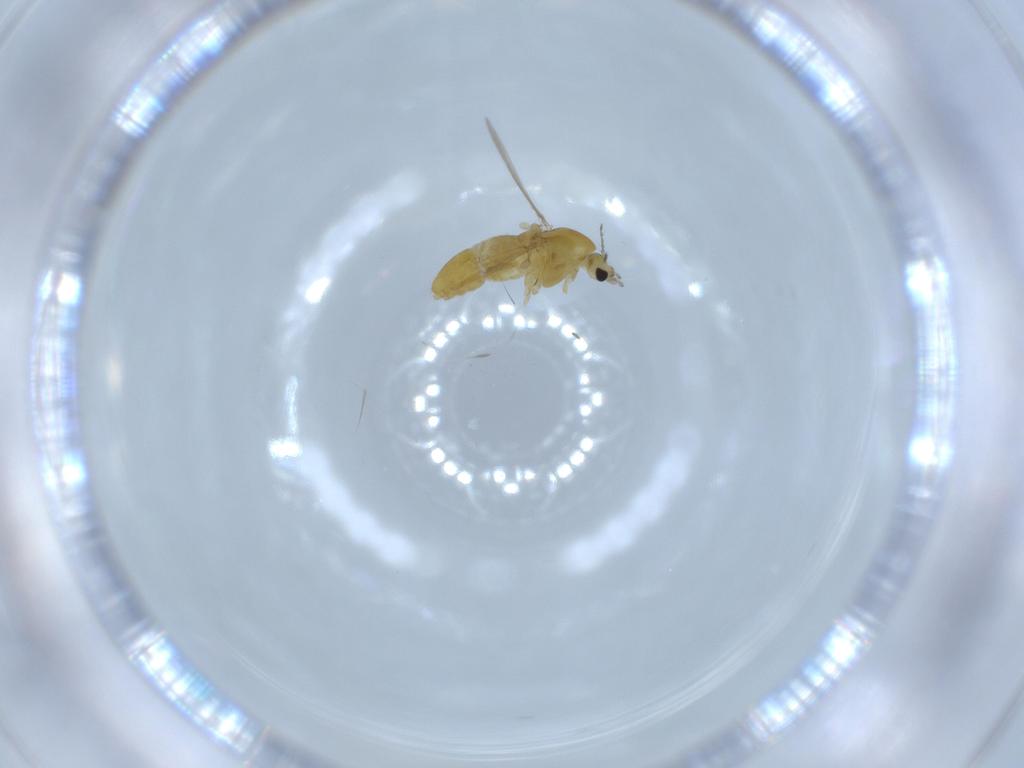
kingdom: Animalia
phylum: Arthropoda
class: Insecta
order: Diptera
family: Chironomidae
